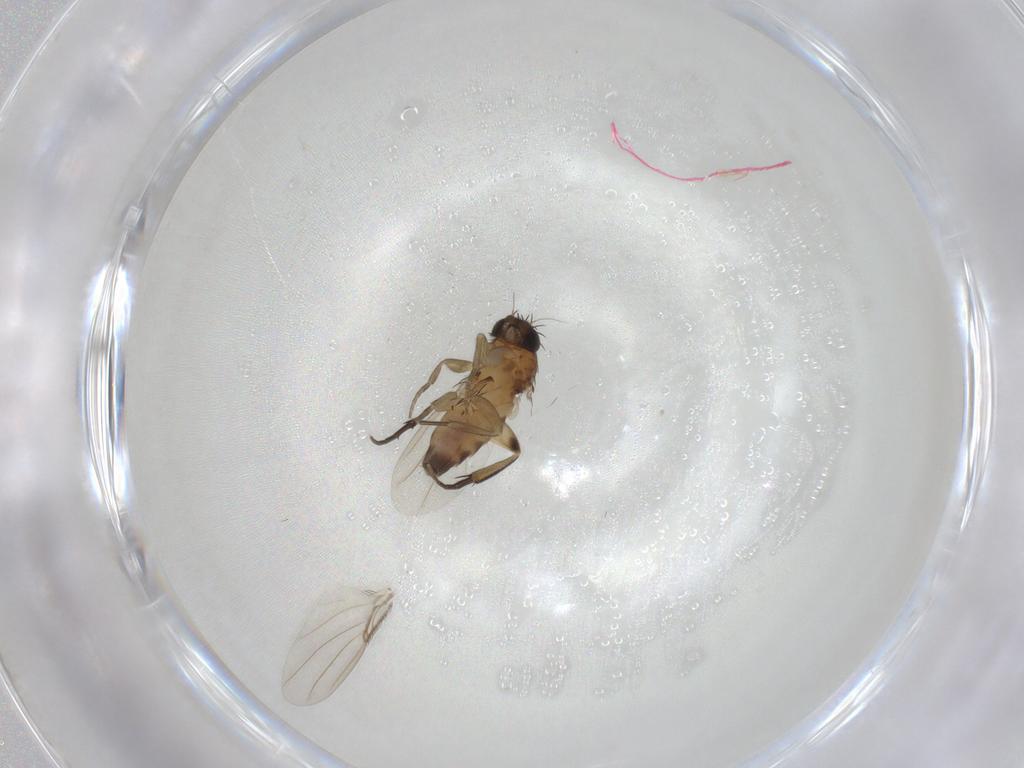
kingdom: Animalia
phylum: Arthropoda
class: Insecta
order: Diptera
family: Phoridae
